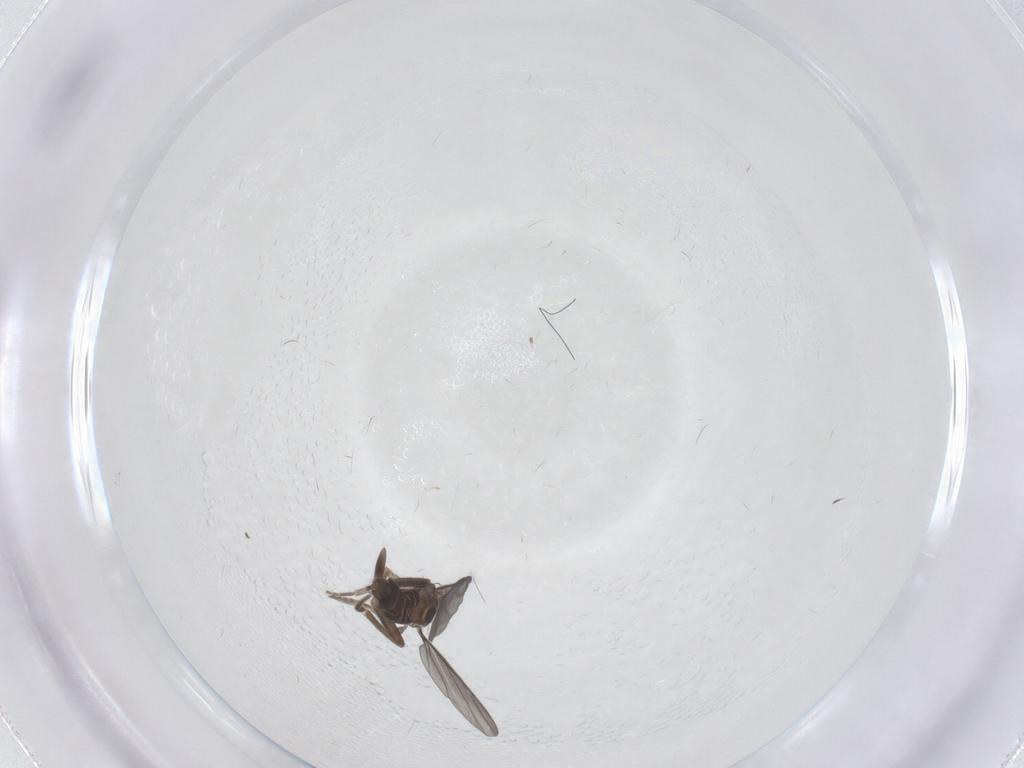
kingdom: Animalia
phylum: Arthropoda
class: Insecta
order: Diptera
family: Phoridae
